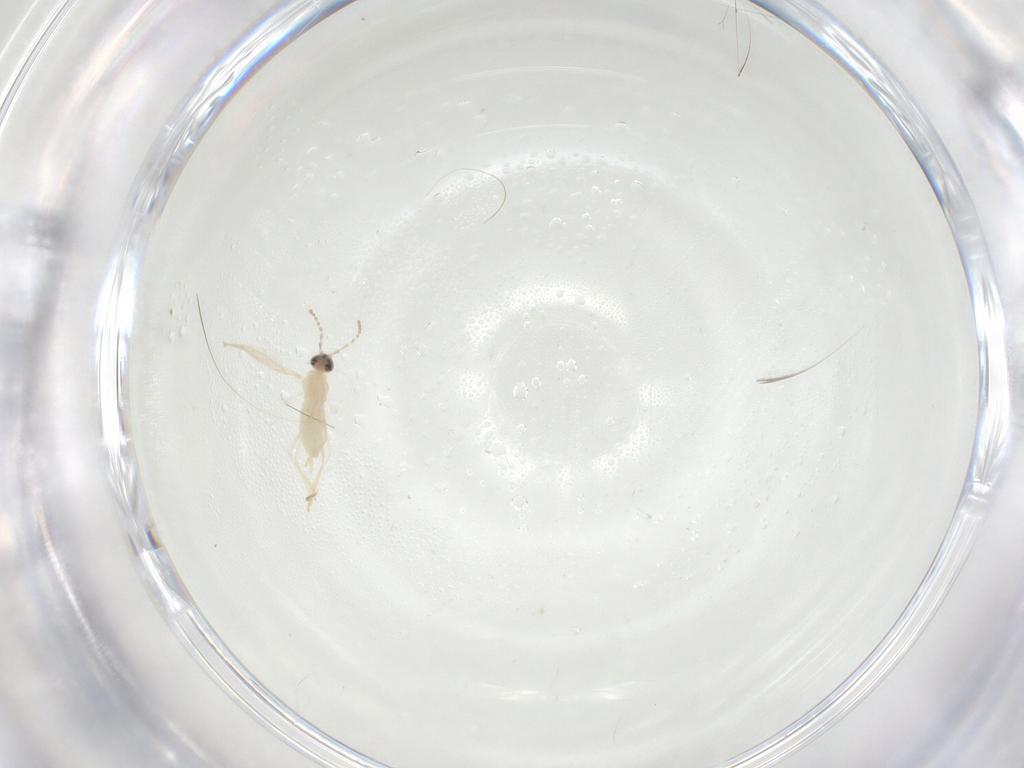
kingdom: Animalia
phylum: Arthropoda
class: Insecta
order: Diptera
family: Cecidomyiidae
